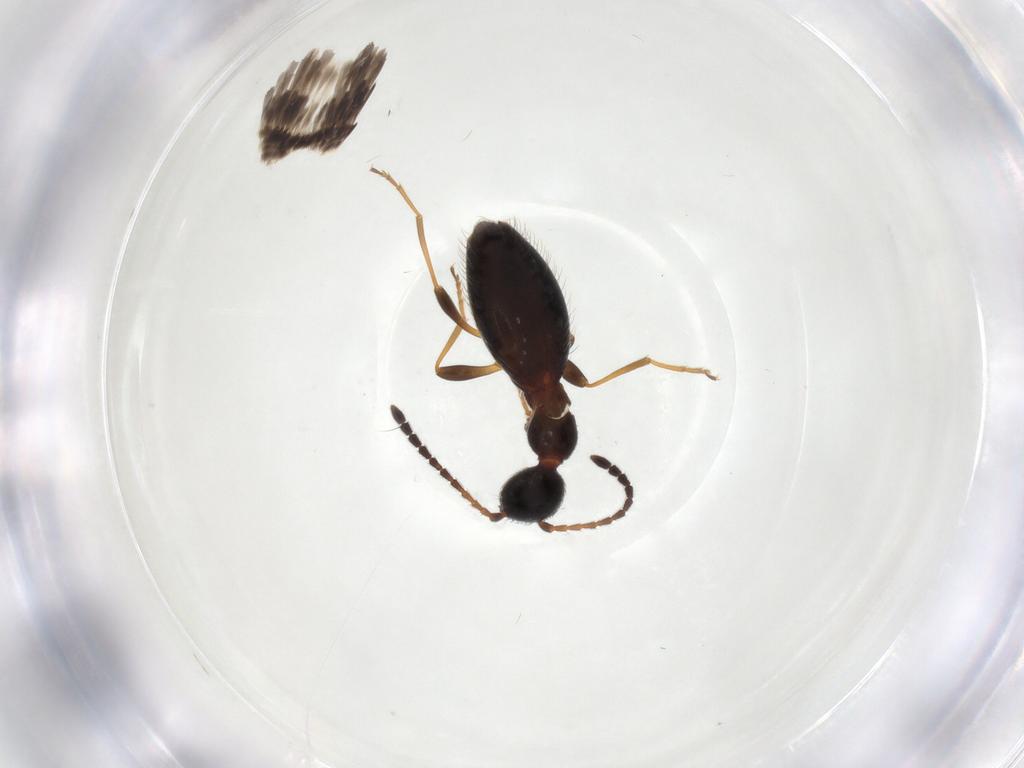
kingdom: Animalia
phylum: Arthropoda
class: Insecta
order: Coleoptera
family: Anthicidae
